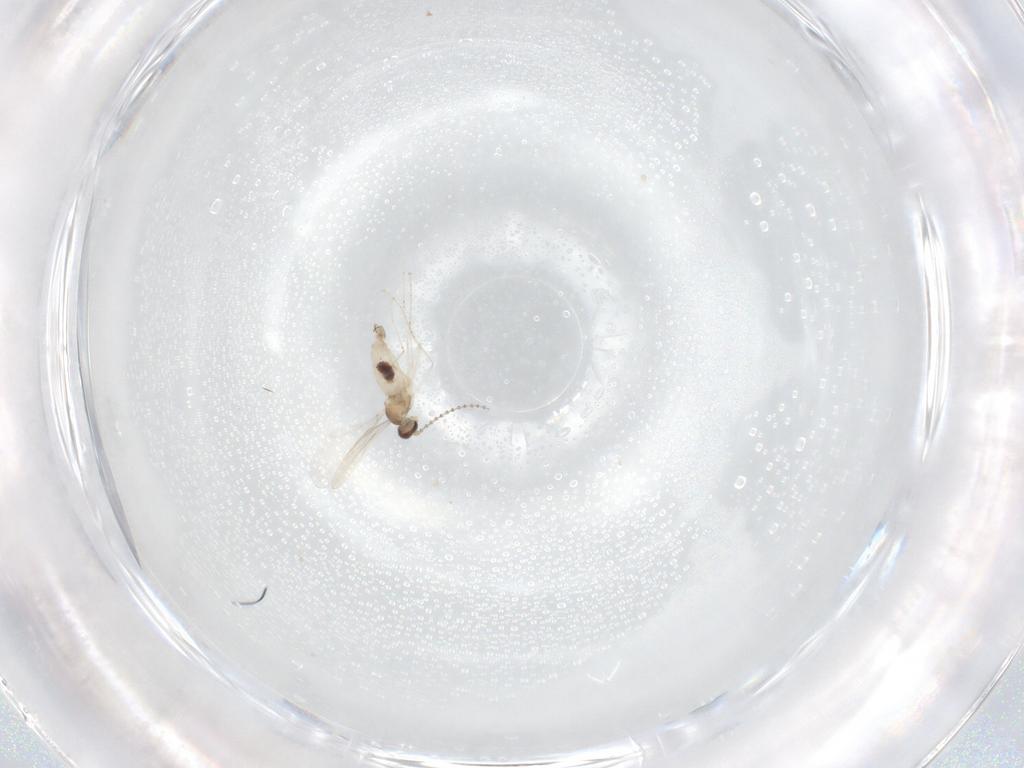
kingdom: Animalia
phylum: Arthropoda
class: Insecta
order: Diptera
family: Cecidomyiidae
